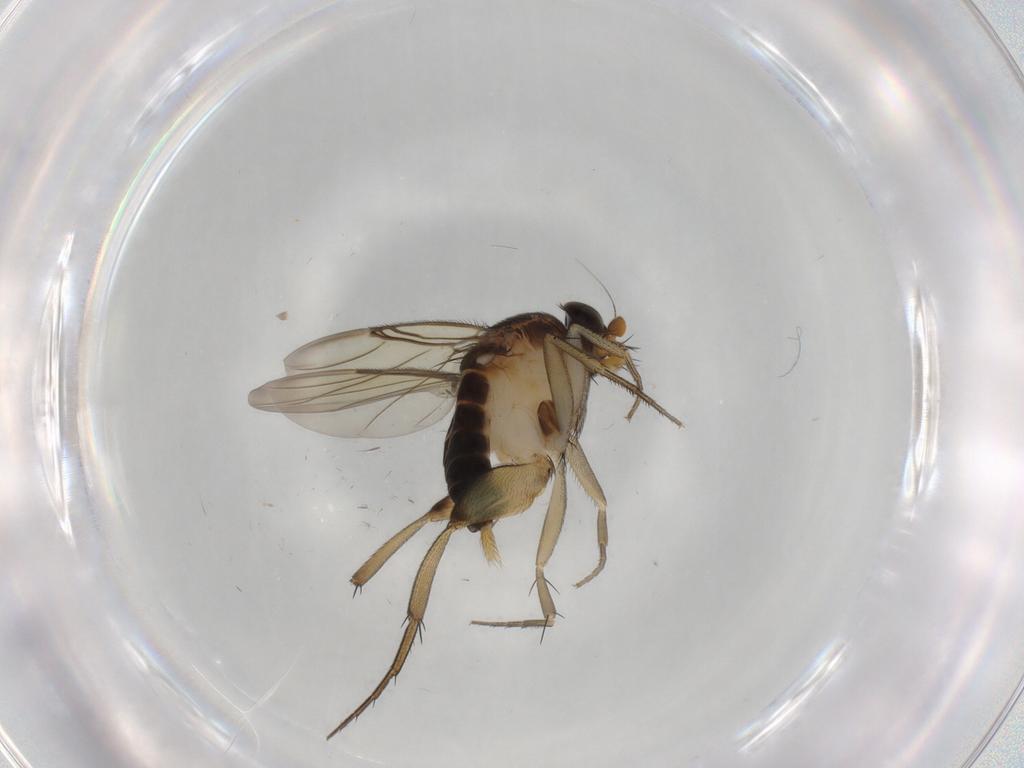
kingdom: Animalia
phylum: Arthropoda
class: Insecta
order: Diptera
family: Phoridae
